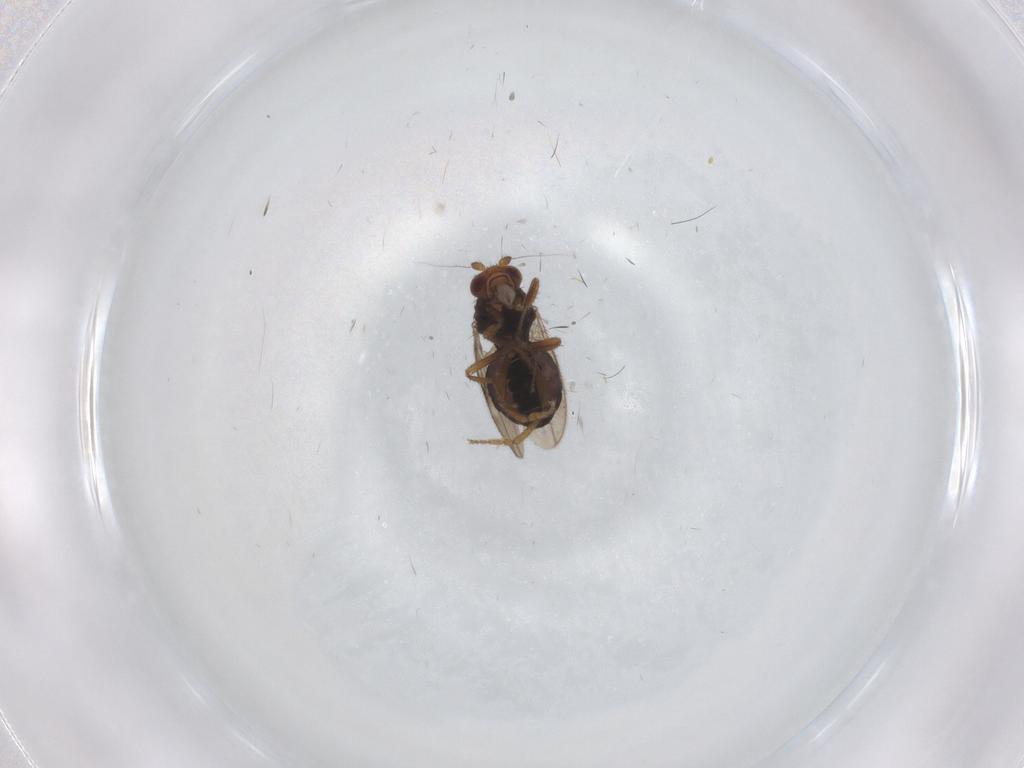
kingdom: Animalia
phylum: Arthropoda
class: Insecta
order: Diptera
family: Sphaeroceridae
